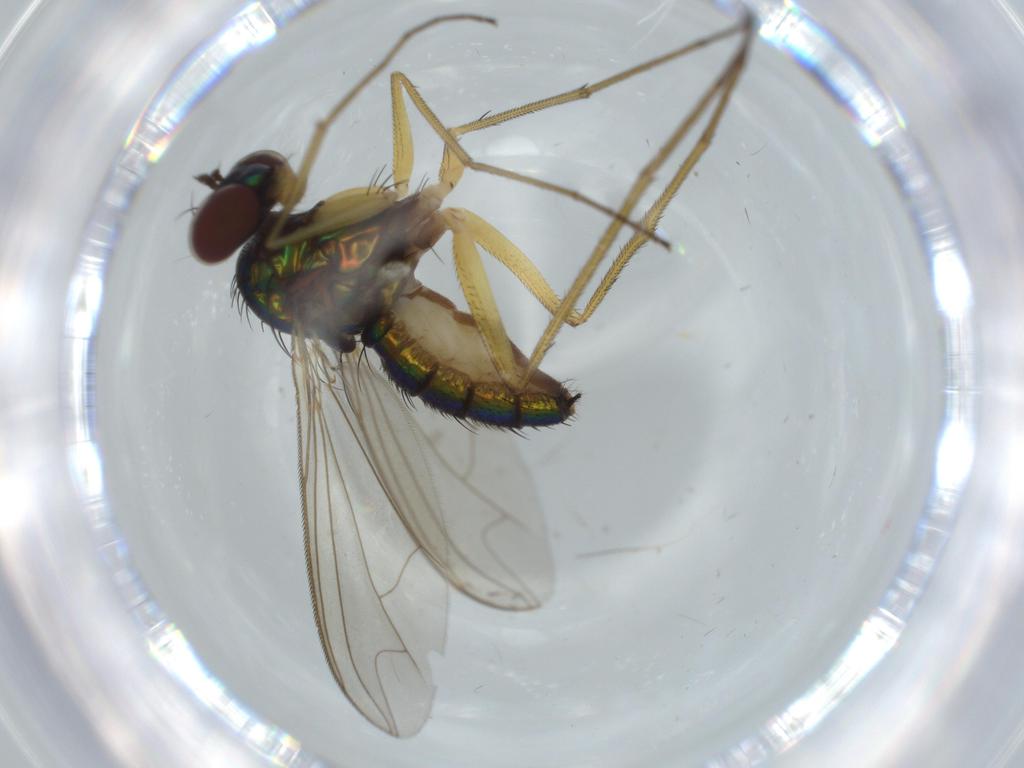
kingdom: Animalia
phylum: Arthropoda
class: Insecta
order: Diptera
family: Dolichopodidae
